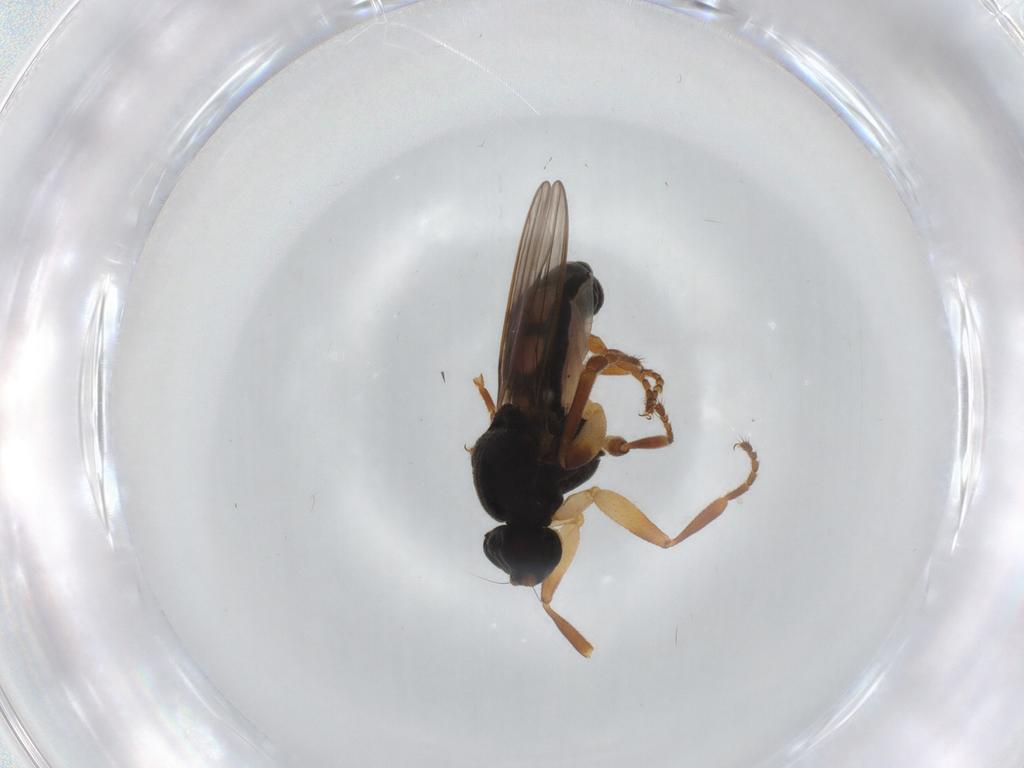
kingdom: Animalia
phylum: Arthropoda
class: Insecta
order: Diptera
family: Sphaeroceridae
